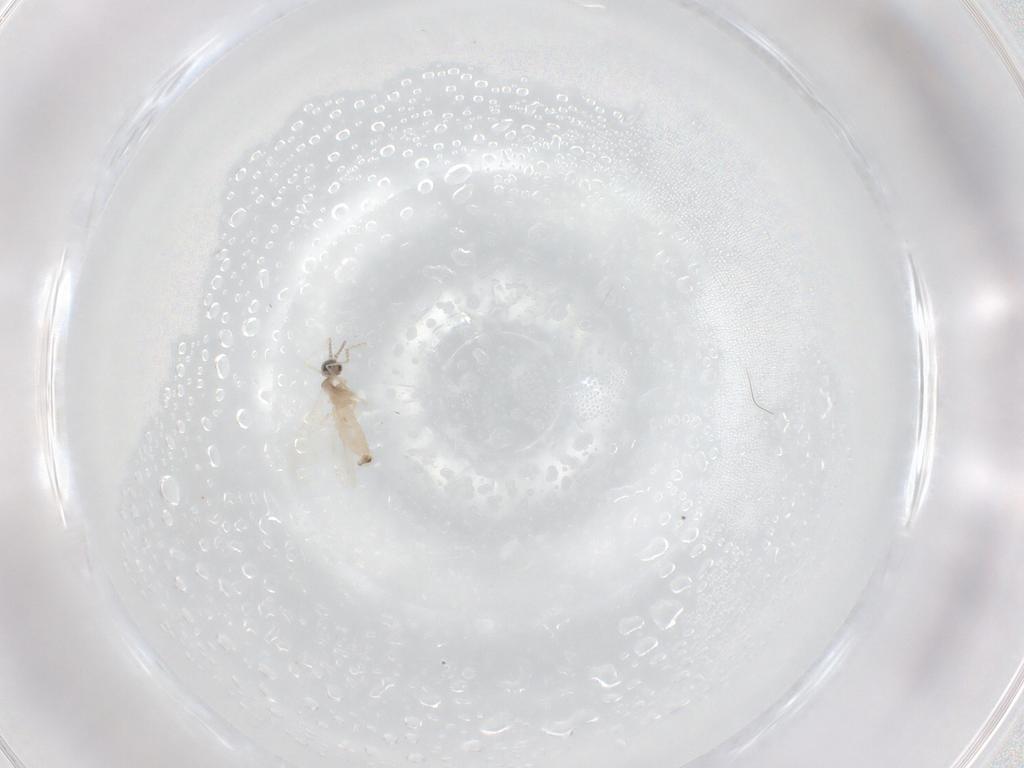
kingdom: Animalia
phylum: Arthropoda
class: Insecta
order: Diptera
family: Cecidomyiidae
